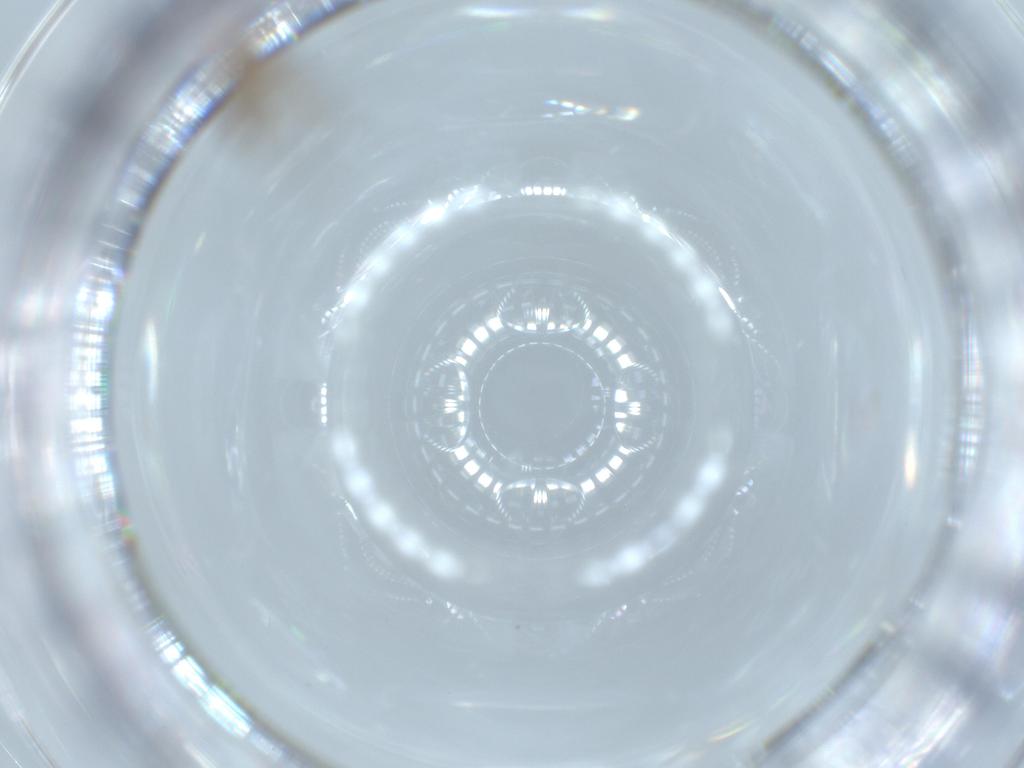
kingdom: Animalia
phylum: Arthropoda
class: Insecta
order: Diptera
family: Chironomidae
